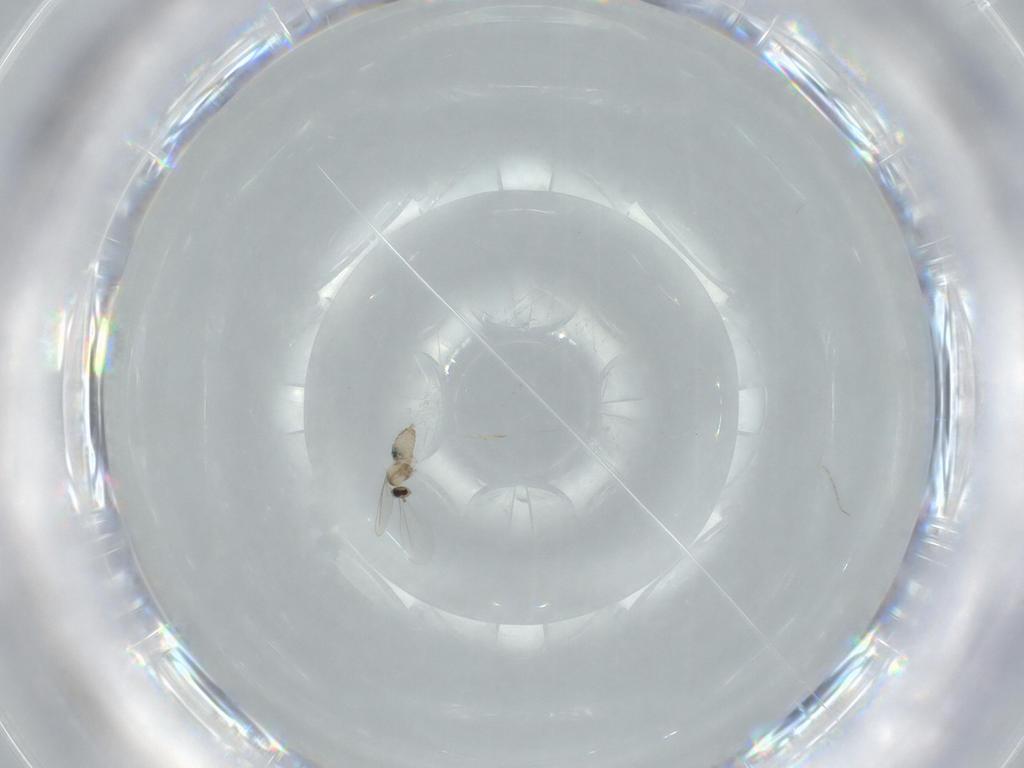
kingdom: Animalia
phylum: Arthropoda
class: Insecta
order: Diptera
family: Cecidomyiidae
